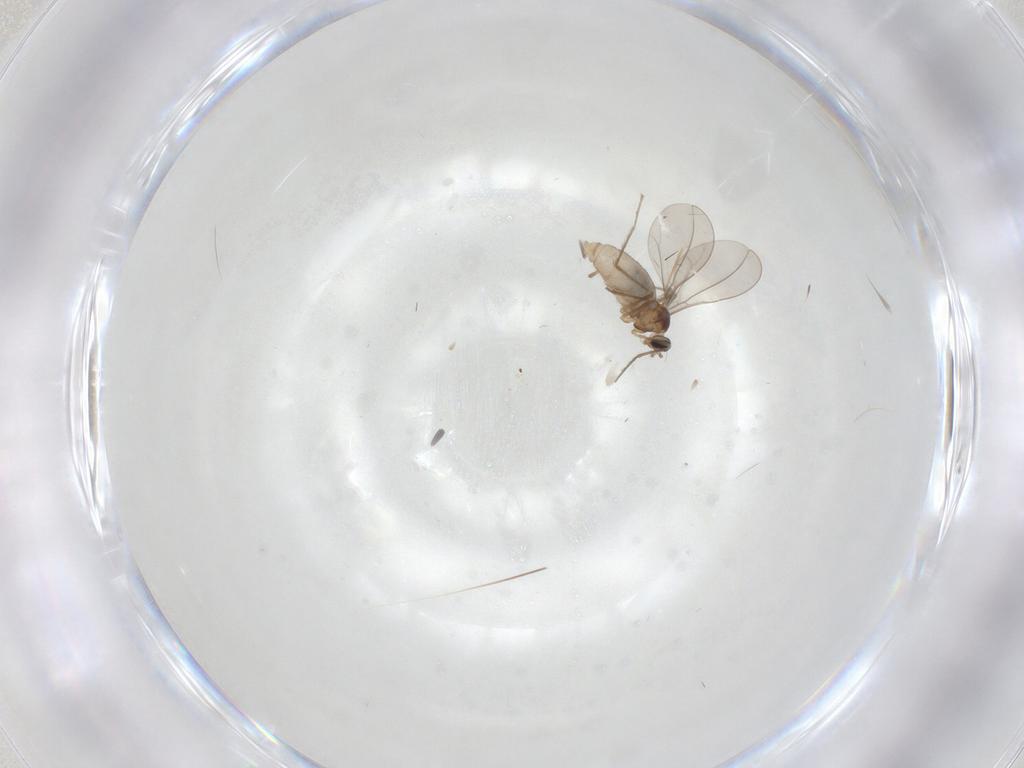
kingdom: Animalia
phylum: Arthropoda
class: Insecta
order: Diptera
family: Cecidomyiidae
